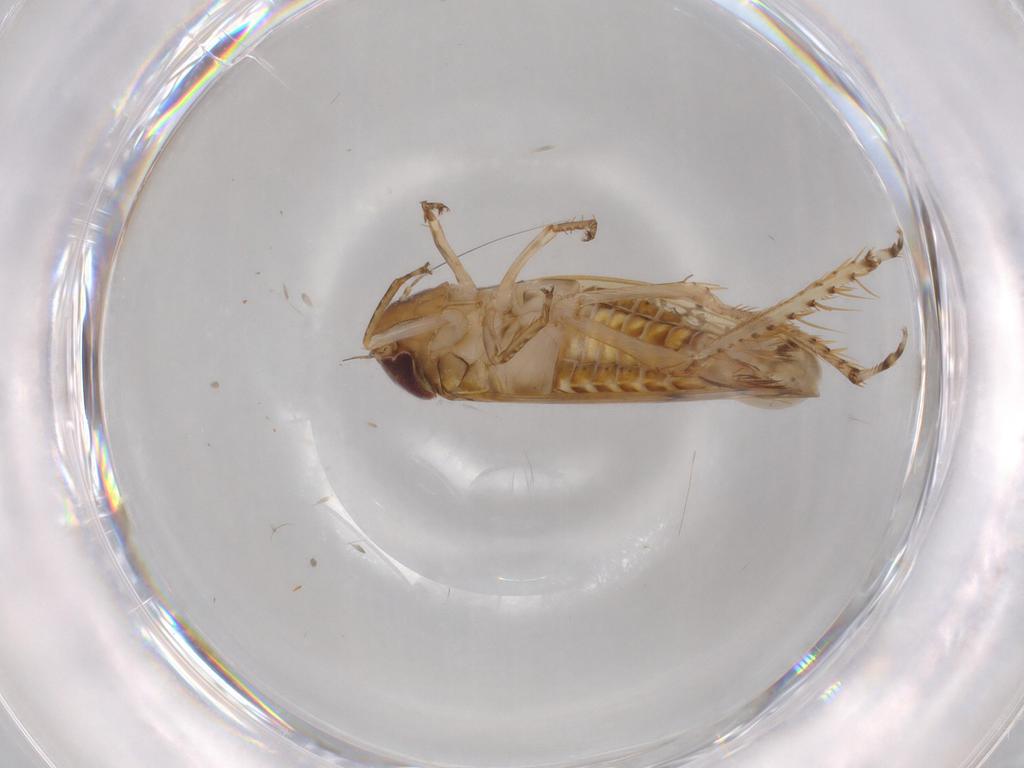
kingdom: Animalia
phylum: Arthropoda
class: Insecta
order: Hemiptera
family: Cicadellidae
